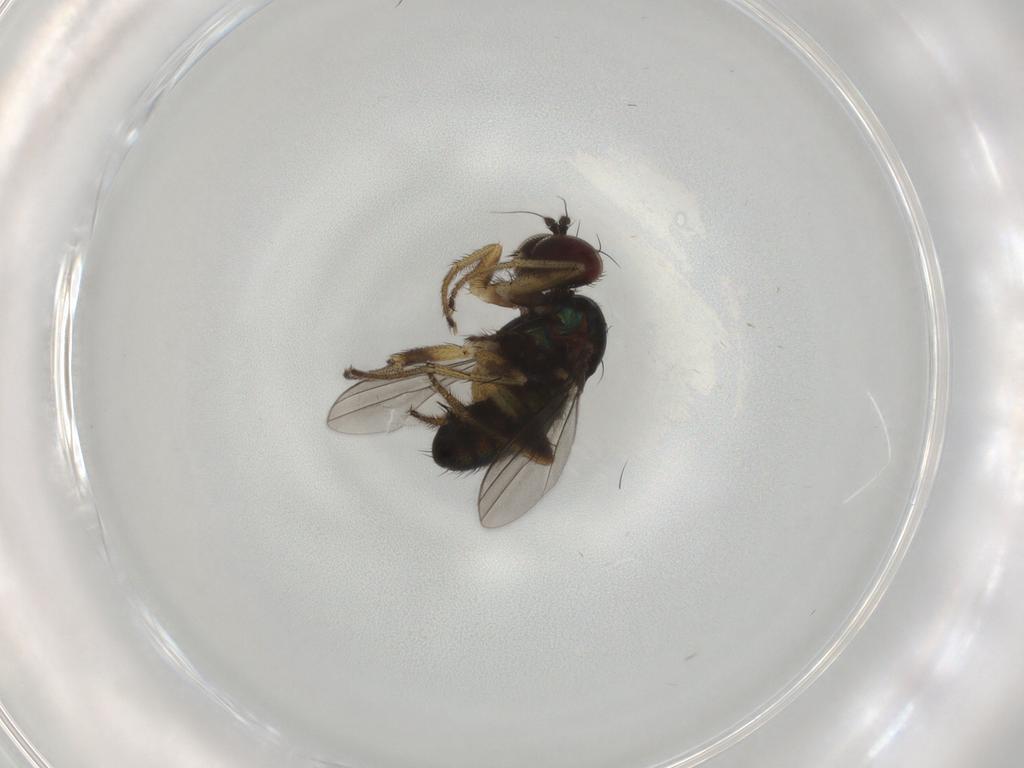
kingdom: Animalia
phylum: Arthropoda
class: Insecta
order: Diptera
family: Chironomidae
